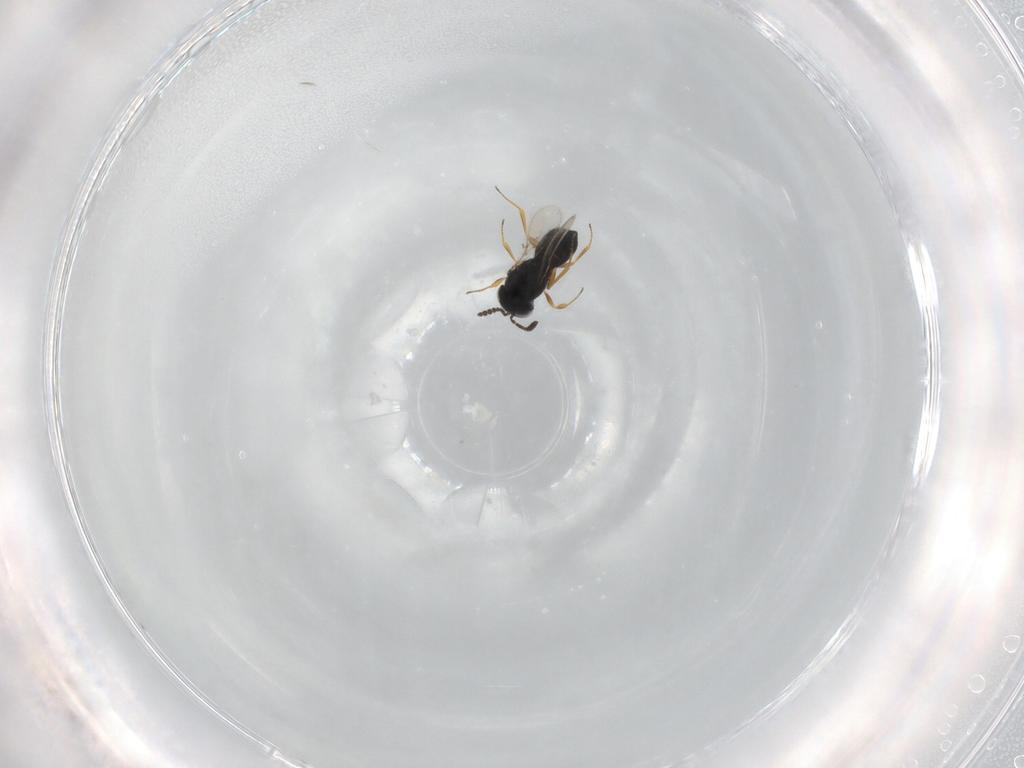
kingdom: Animalia
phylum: Arthropoda
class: Insecta
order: Hymenoptera
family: Scelionidae
